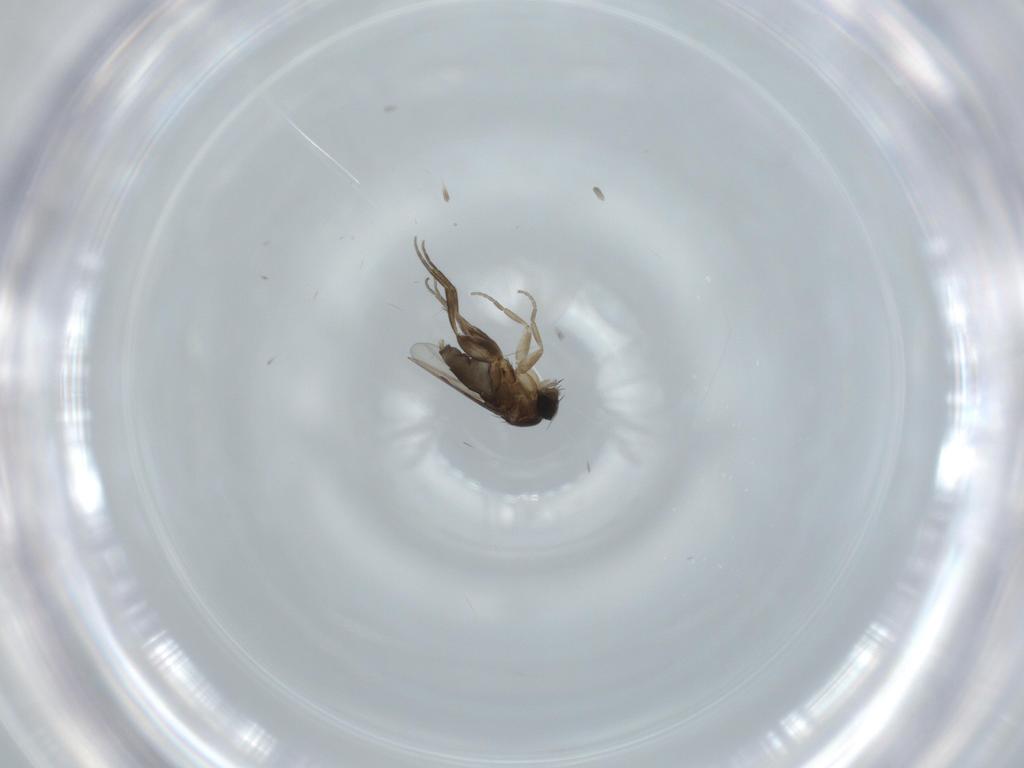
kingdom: Animalia
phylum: Arthropoda
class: Insecta
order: Diptera
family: Phoridae
